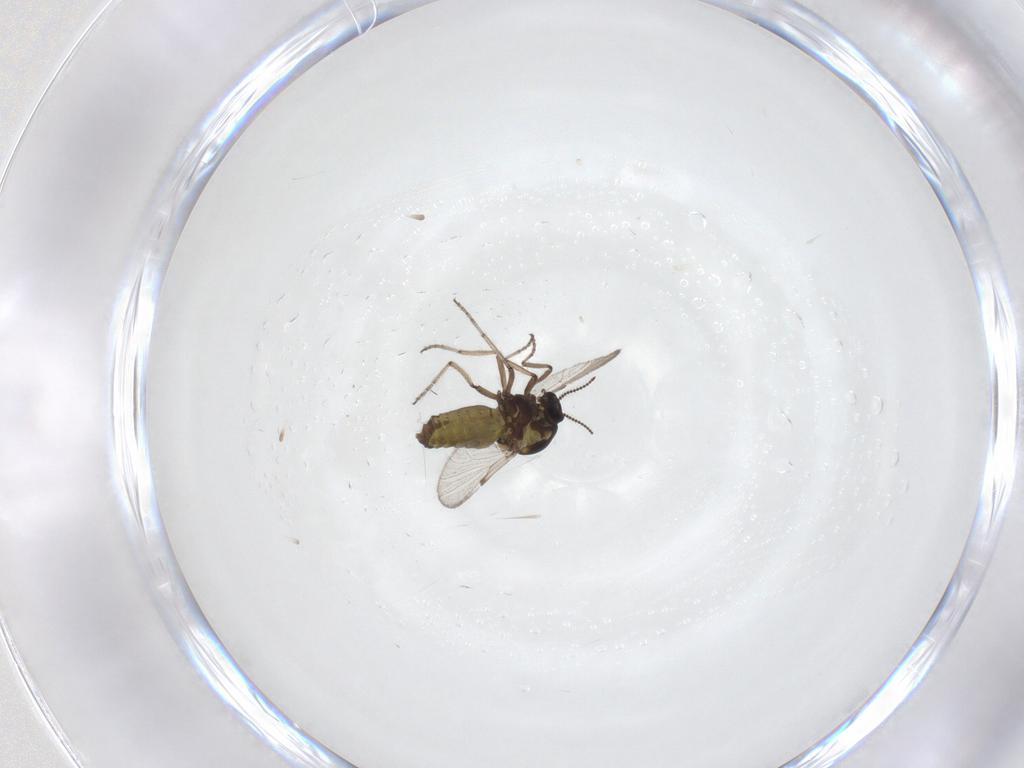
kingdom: Animalia
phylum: Arthropoda
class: Insecta
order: Diptera
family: Ceratopogonidae
